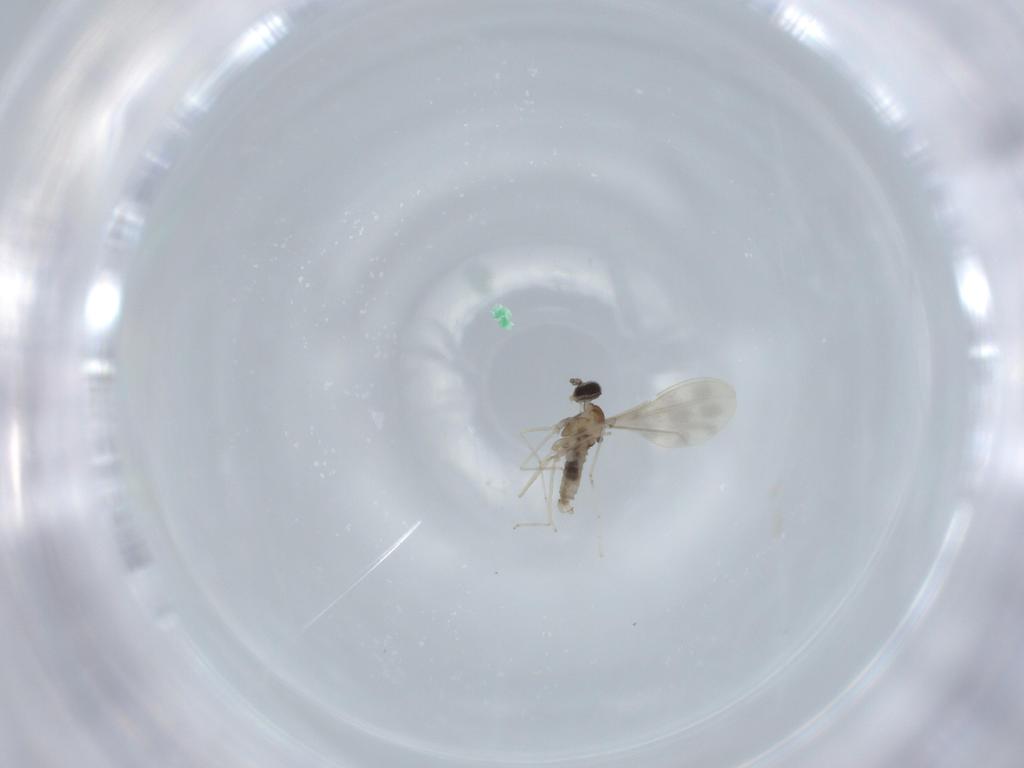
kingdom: Animalia
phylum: Arthropoda
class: Insecta
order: Diptera
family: Cecidomyiidae
